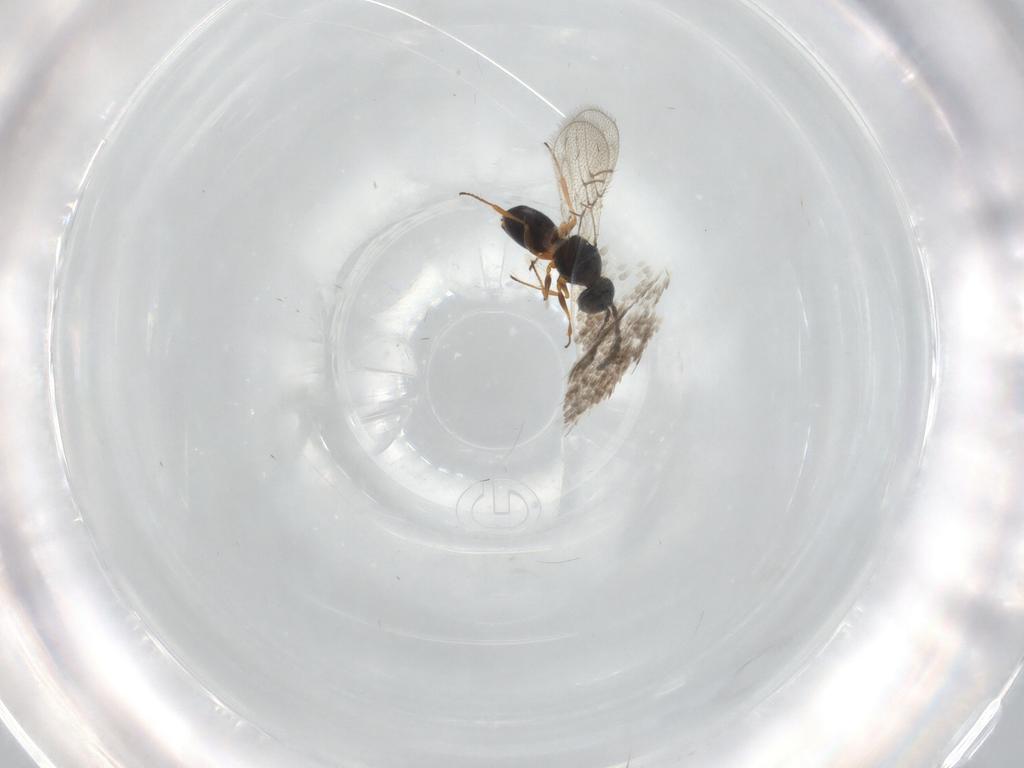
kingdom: Animalia
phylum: Arthropoda
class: Insecta
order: Hymenoptera
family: Figitidae
